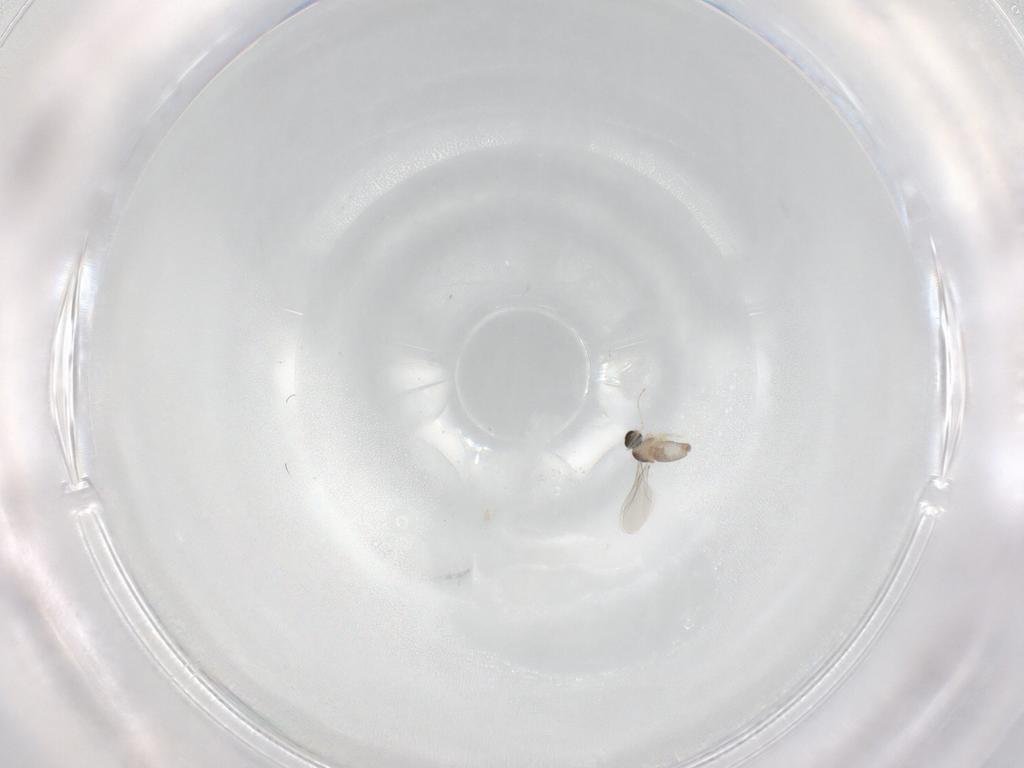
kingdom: Animalia
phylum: Arthropoda
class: Insecta
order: Diptera
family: Cecidomyiidae
